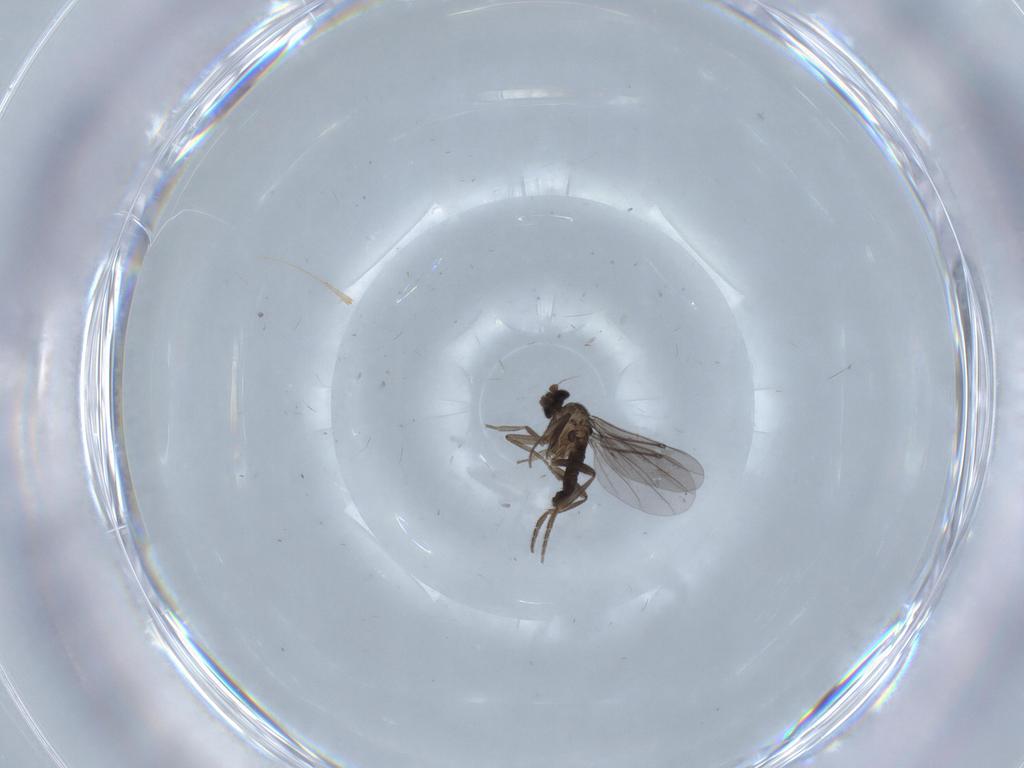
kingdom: Animalia
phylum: Arthropoda
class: Insecta
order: Diptera
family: Phoridae
